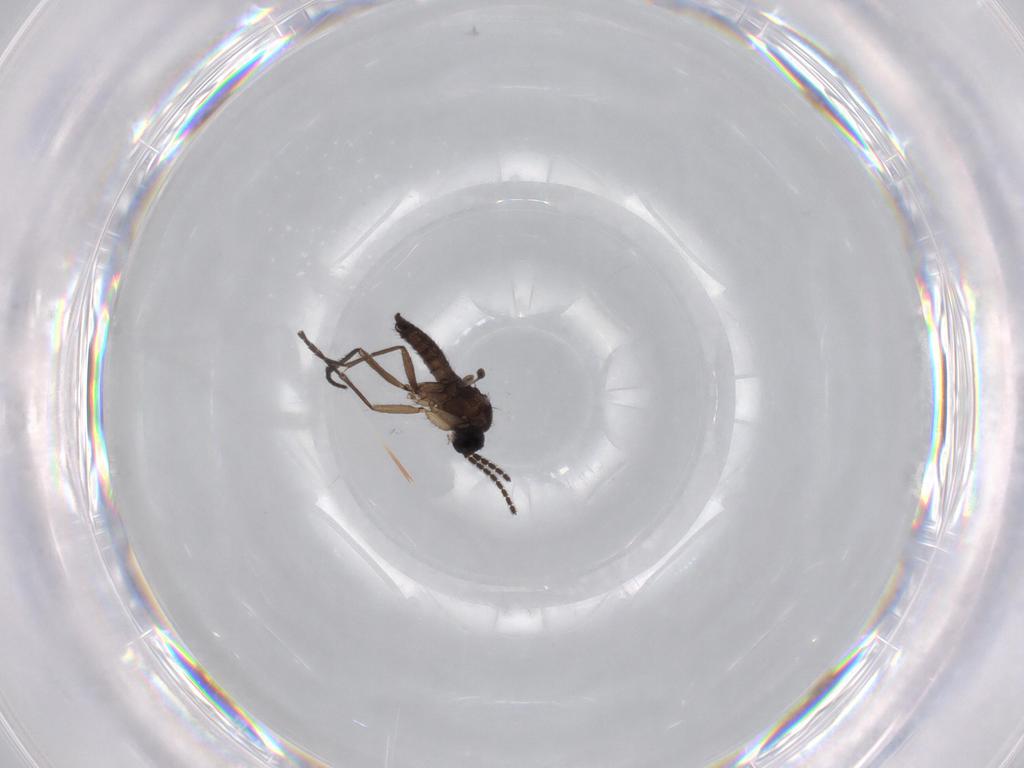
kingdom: Animalia
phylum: Arthropoda
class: Insecta
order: Diptera
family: Sciaridae
